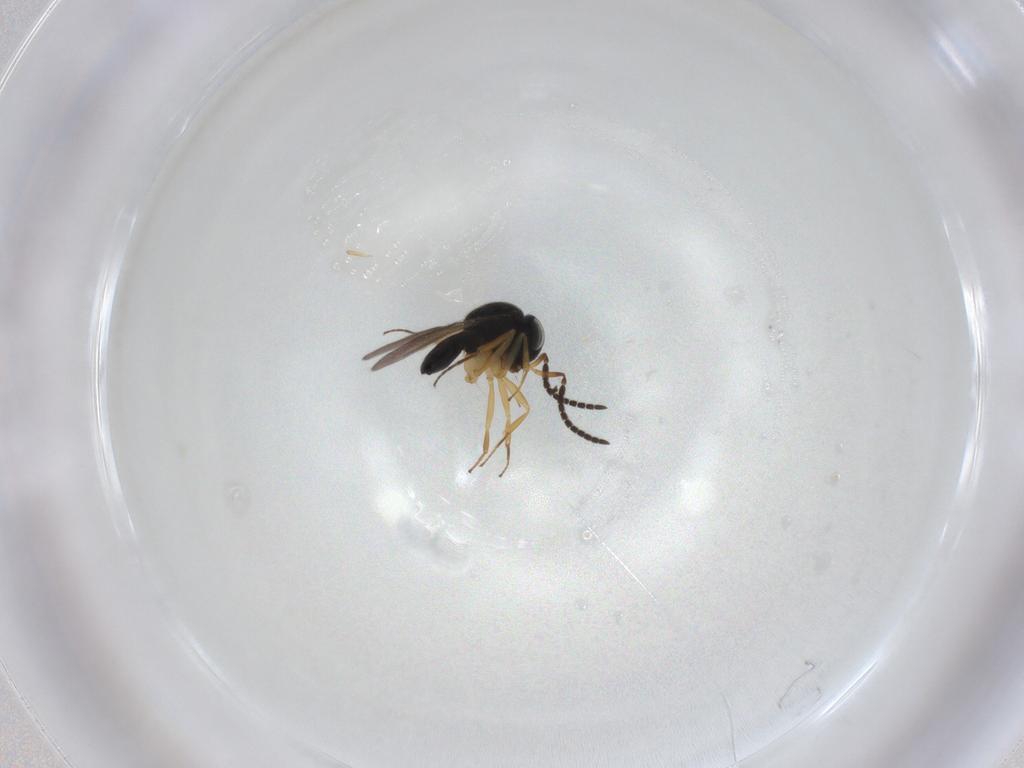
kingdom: Animalia
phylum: Arthropoda
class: Insecta
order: Hymenoptera
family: Scelionidae
